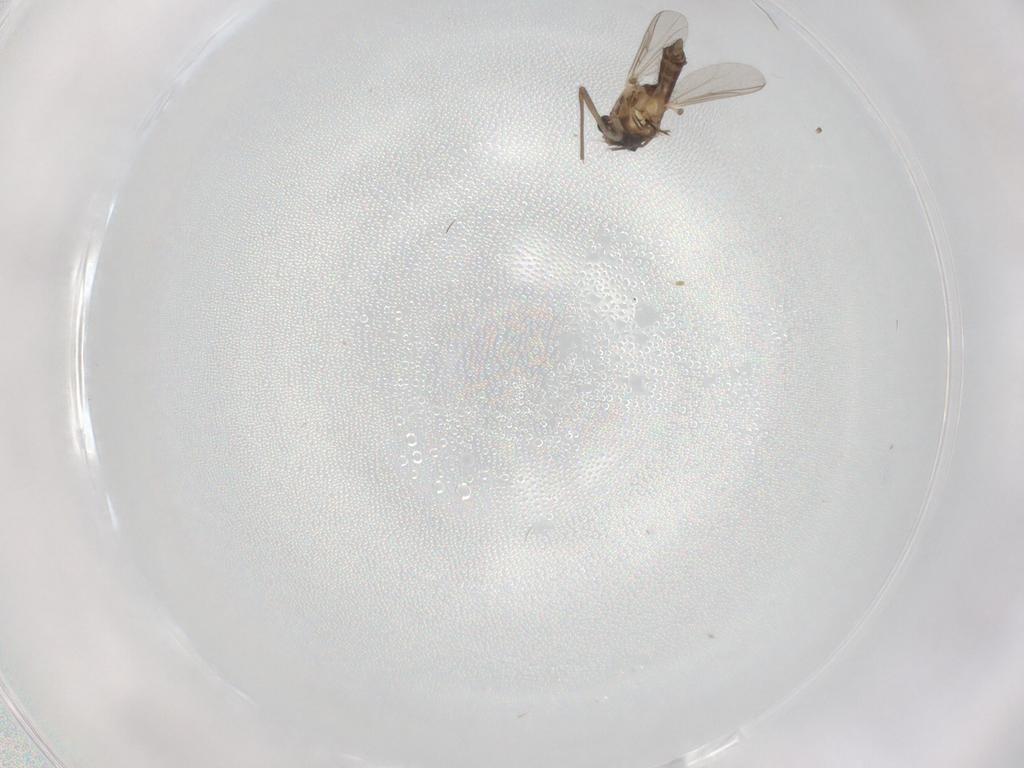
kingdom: Animalia
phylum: Arthropoda
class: Insecta
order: Diptera
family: Chironomidae
